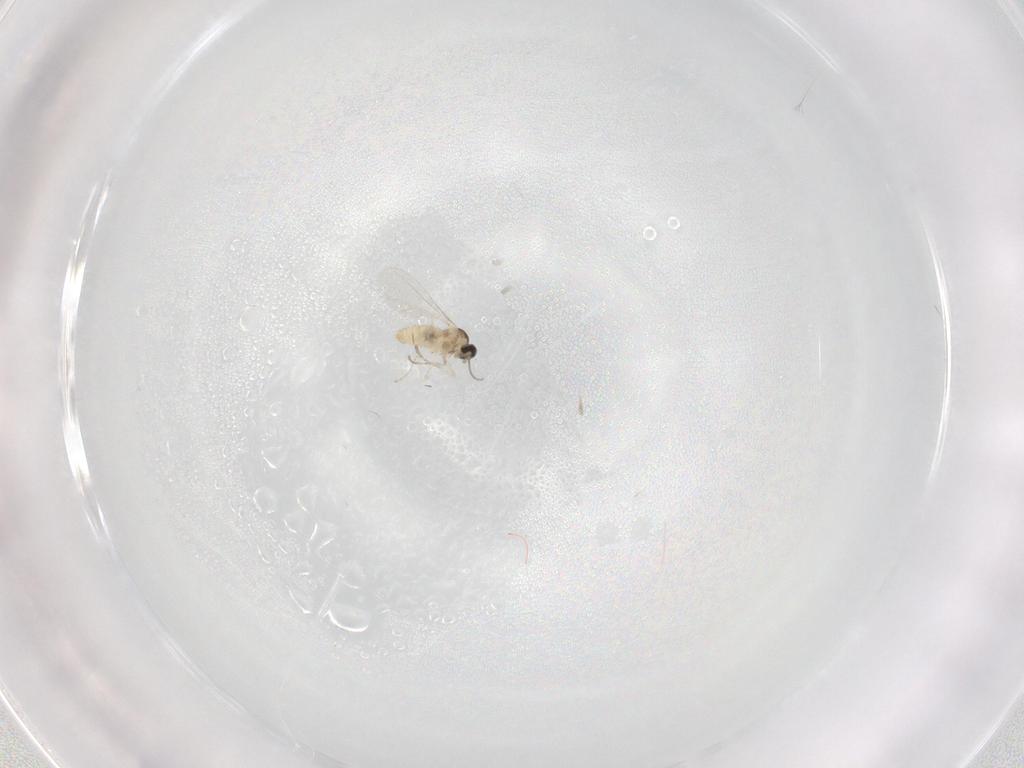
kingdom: Animalia
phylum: Arthropoda
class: Insecta
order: Diptera
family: Cecidomyiidae
